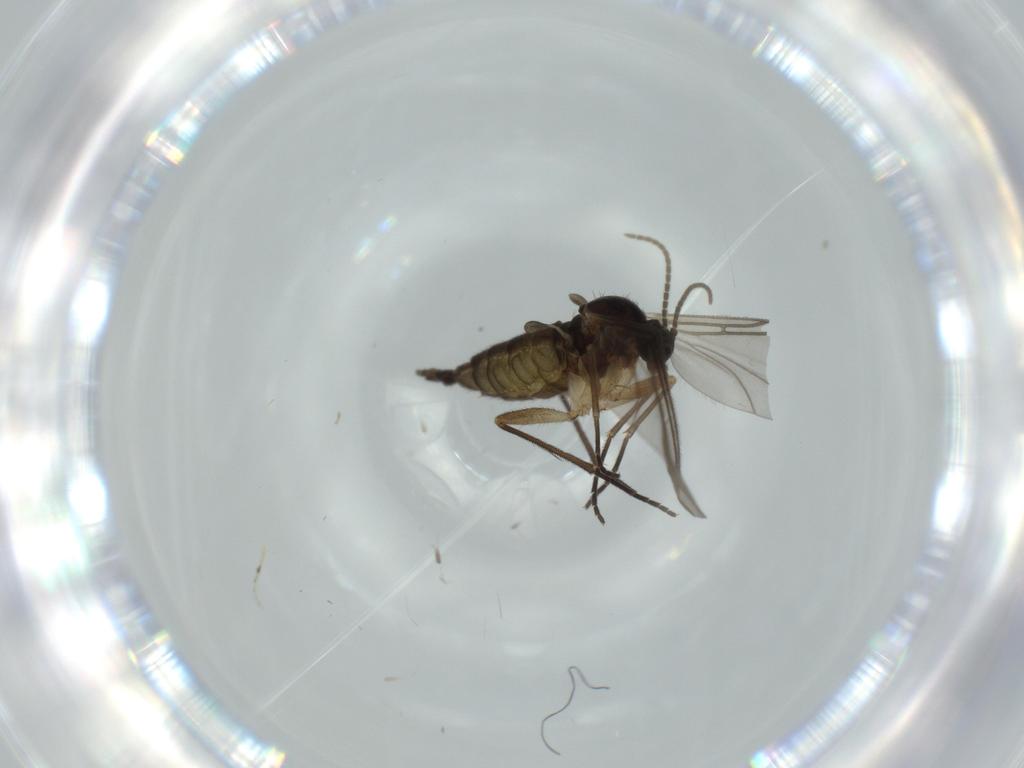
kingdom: Animalia
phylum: Arthropoda
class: Insecta
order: Diptera
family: Sciaridae
